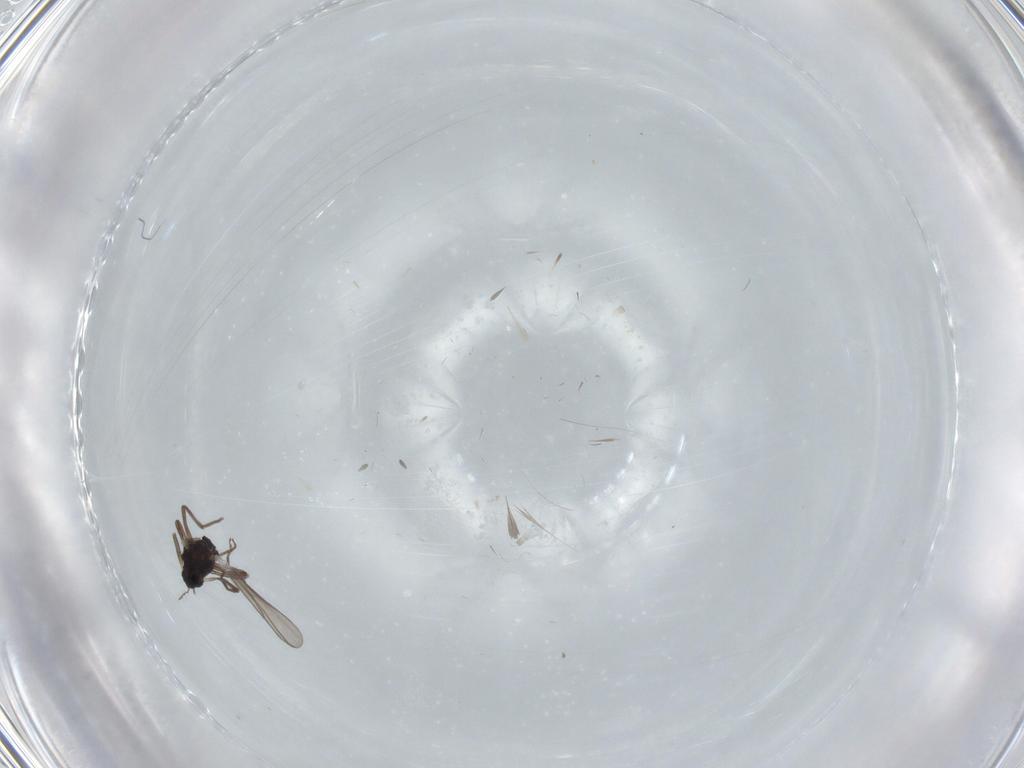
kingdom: Animalia
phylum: Arthropoda
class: Insecta
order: Diptera
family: Chironomidae
